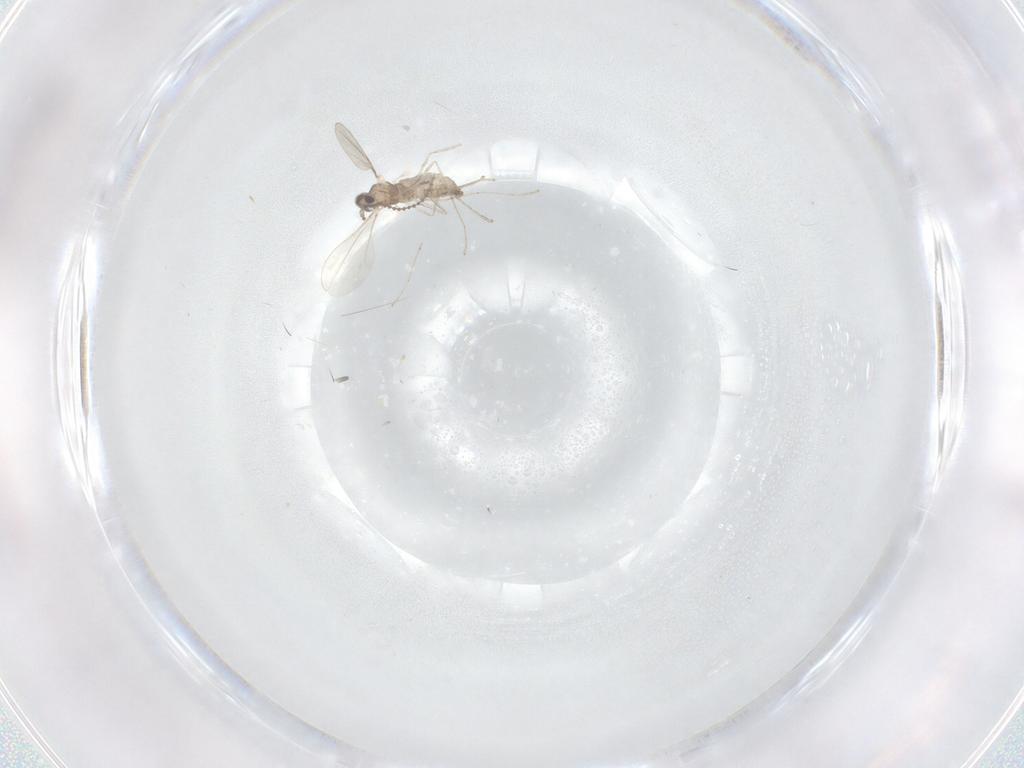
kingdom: Animalia
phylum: Arthropoda
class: Insecta
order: Diptera
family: Cecidomyiidae
